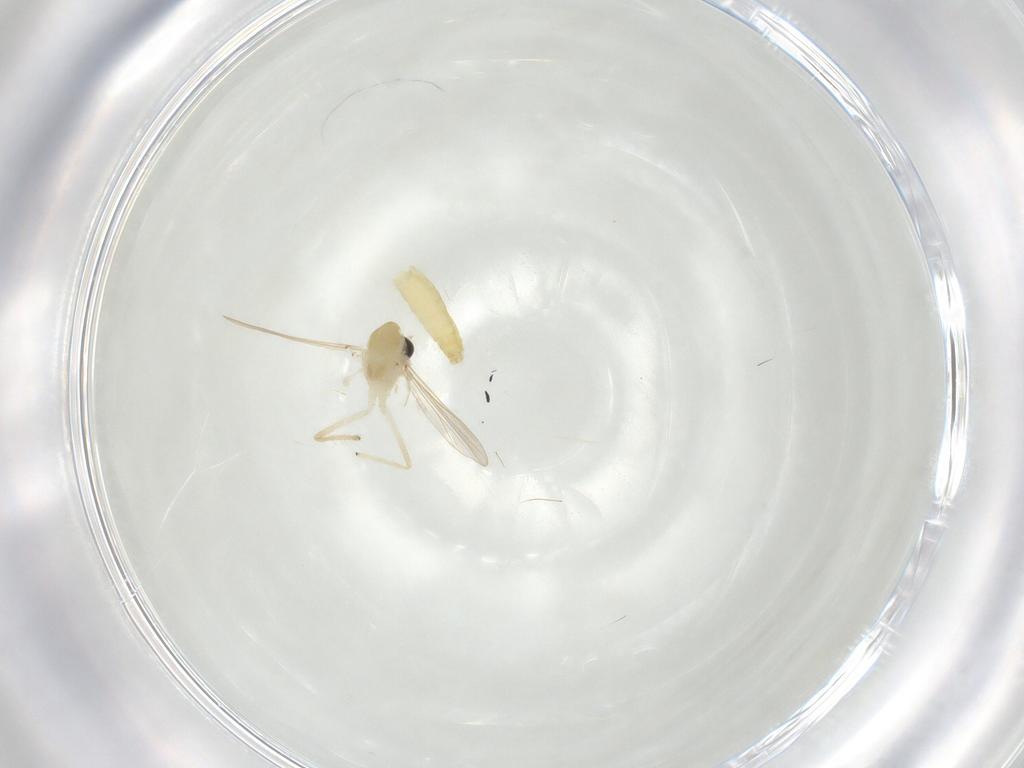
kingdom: Animalia
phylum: Arthropoda
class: Insecta
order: Diptera
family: Chironomidae
